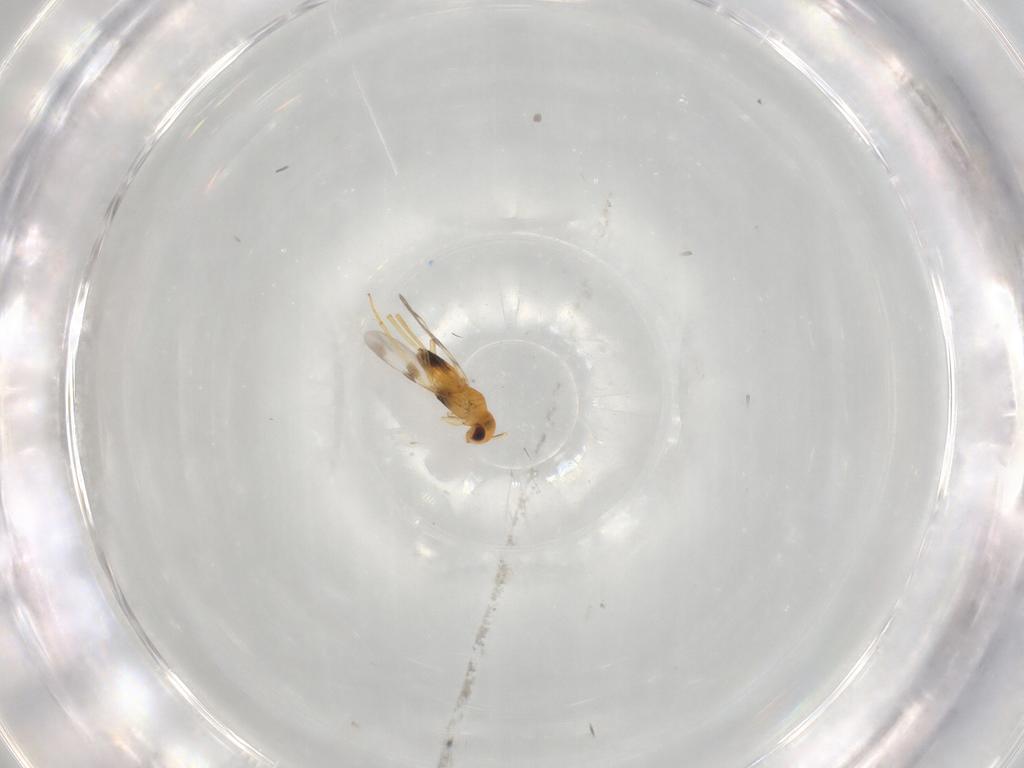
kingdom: Animalia
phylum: Arthropoda
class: Insecta
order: Hymenoptera
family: Encyrtidae
